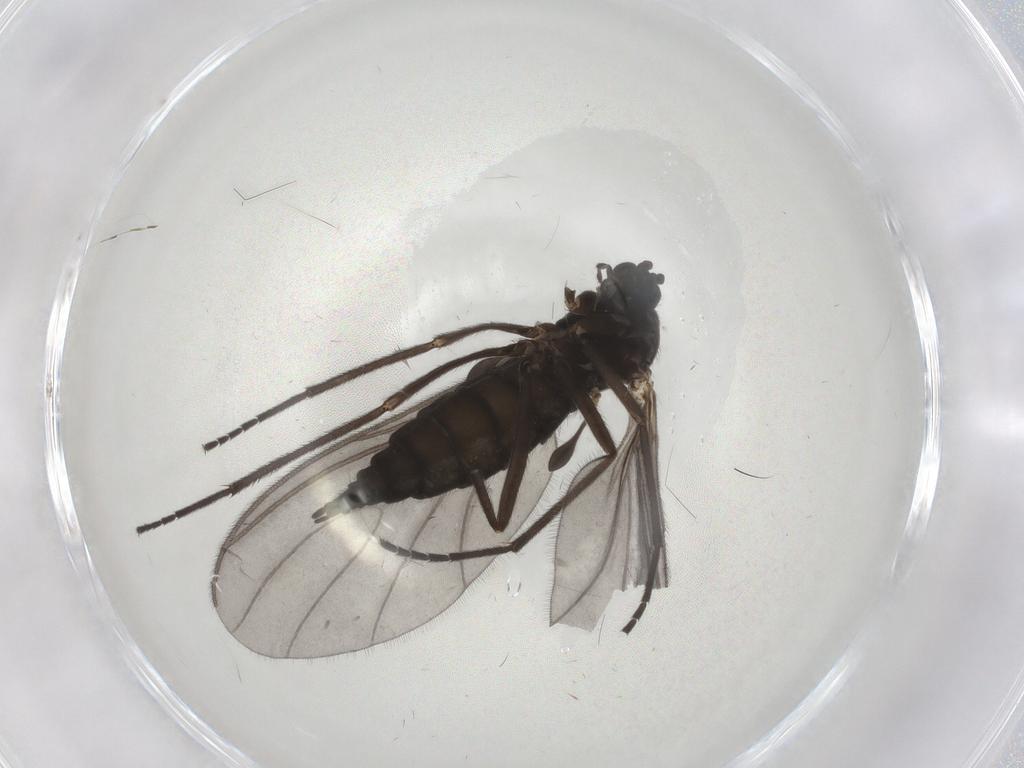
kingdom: Animalia
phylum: Arthropoda
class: Insecta
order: Diptera
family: Sciaridae
